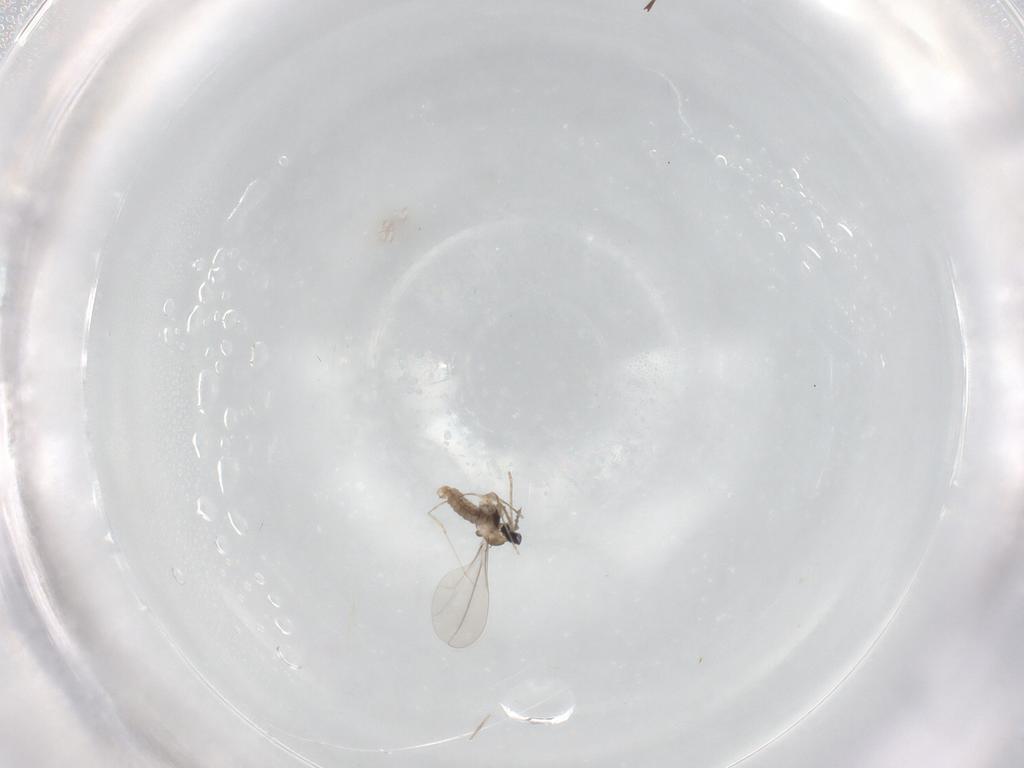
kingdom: Animalia
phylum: Arthropoda
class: Insecta
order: Diptera
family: Cecidomyiidae
